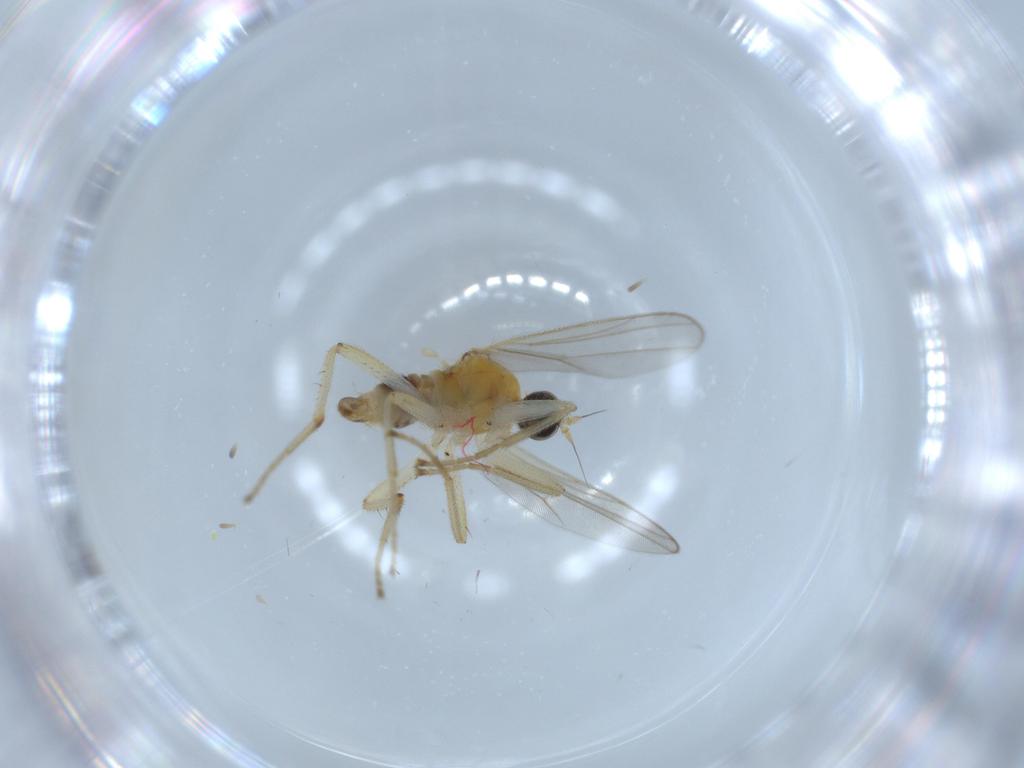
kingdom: Animalia
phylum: Arthropoda
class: Insecta
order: Diptera
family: Hybotidae
